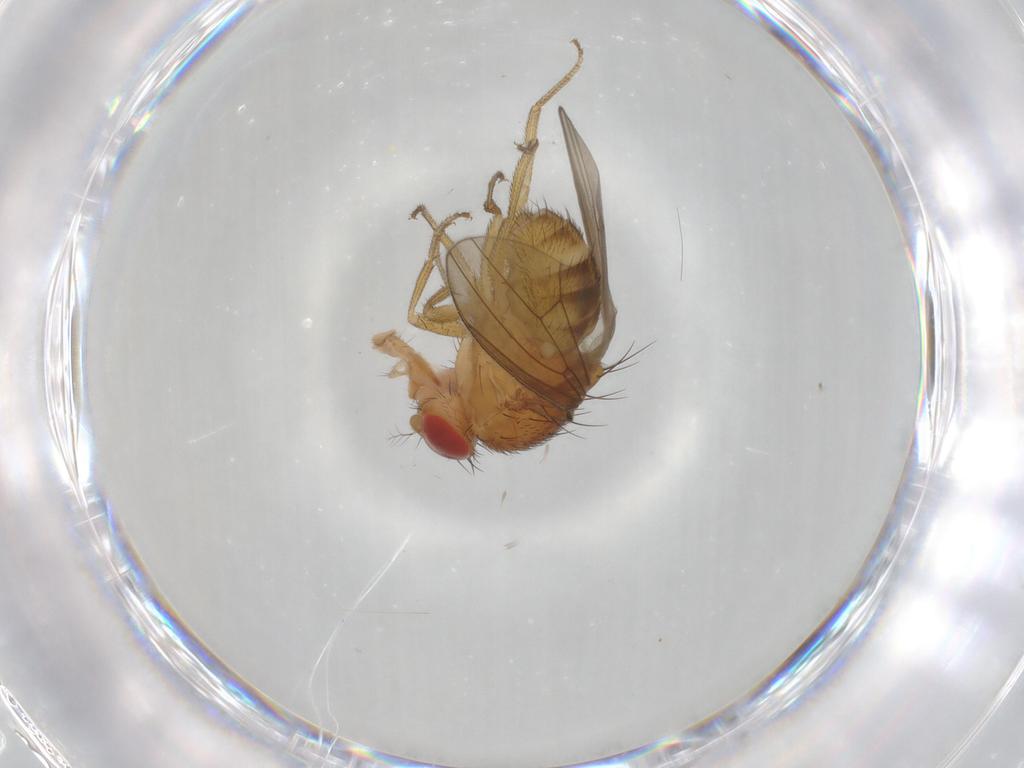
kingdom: Animalia
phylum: Arthropoda
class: Insecta
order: Diptera
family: Drosophilidae
